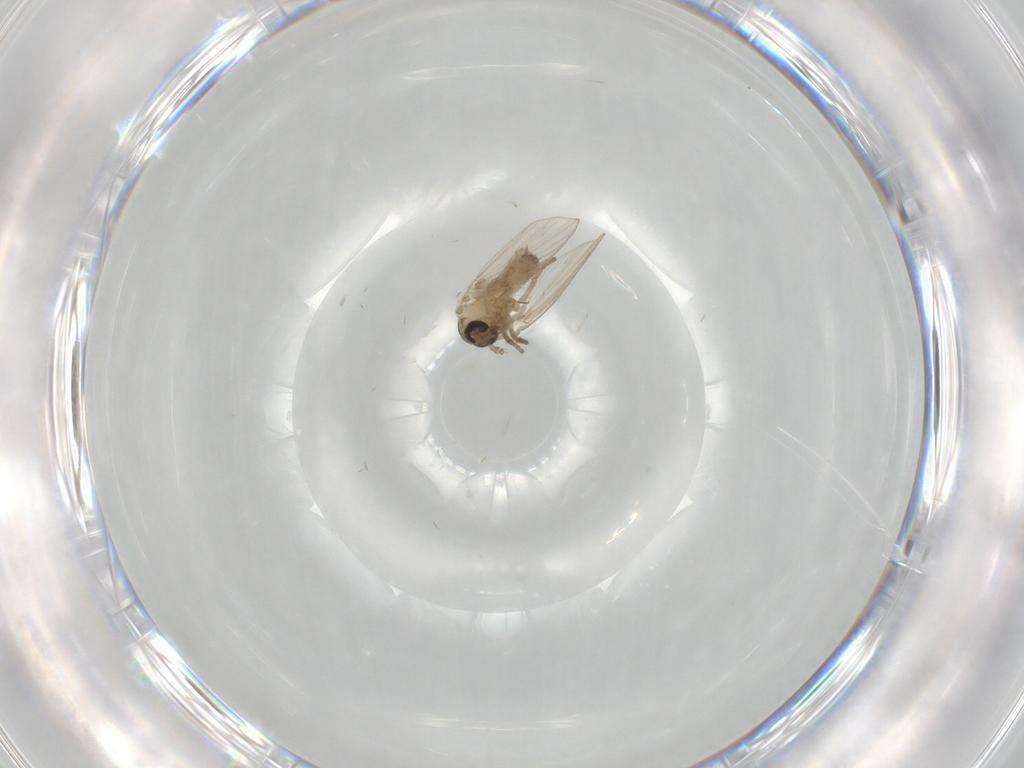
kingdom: Animalia
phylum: Arthropoda
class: Insecta
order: Diptera
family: Psychodidae
